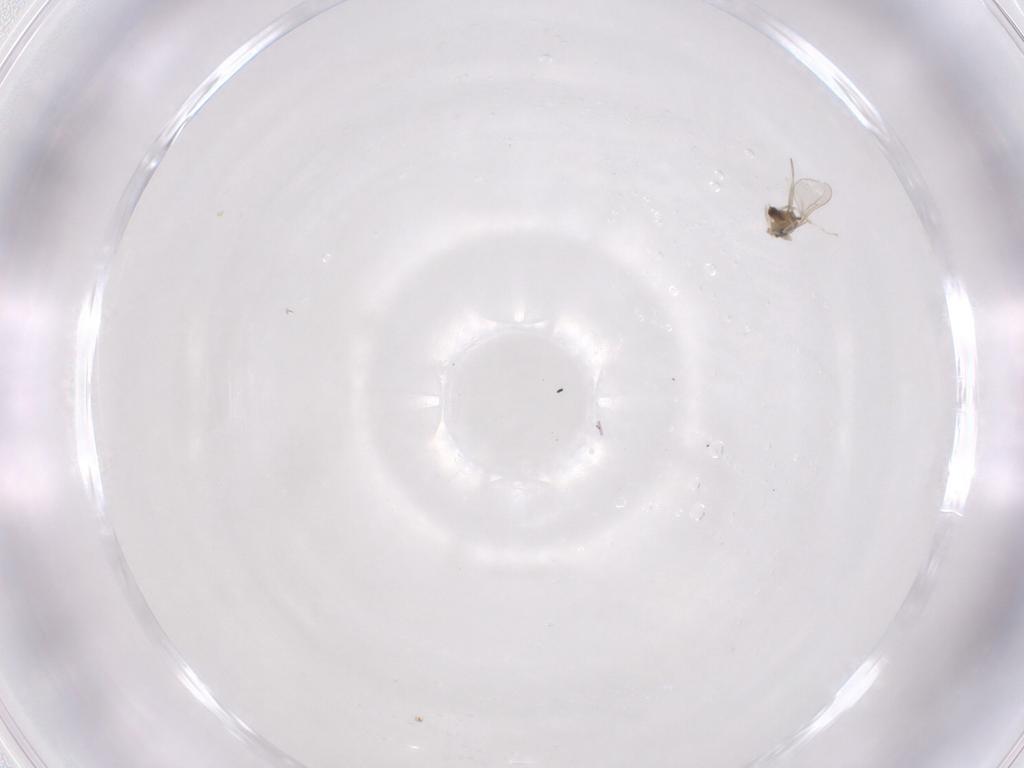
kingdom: Animalia
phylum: Arthropoda
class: Insecta
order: Diptera
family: Cecidomyiidae
